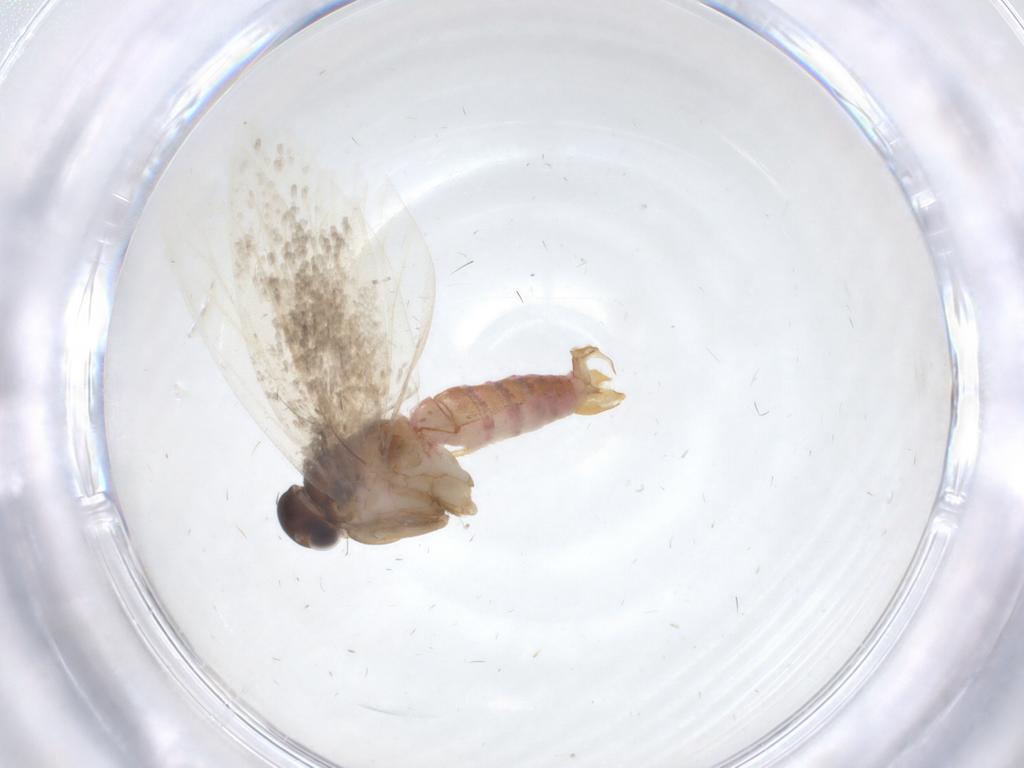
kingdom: Animalia
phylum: Arthropoda
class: Insecta
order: Lepidoptera
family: Oecophoridae
